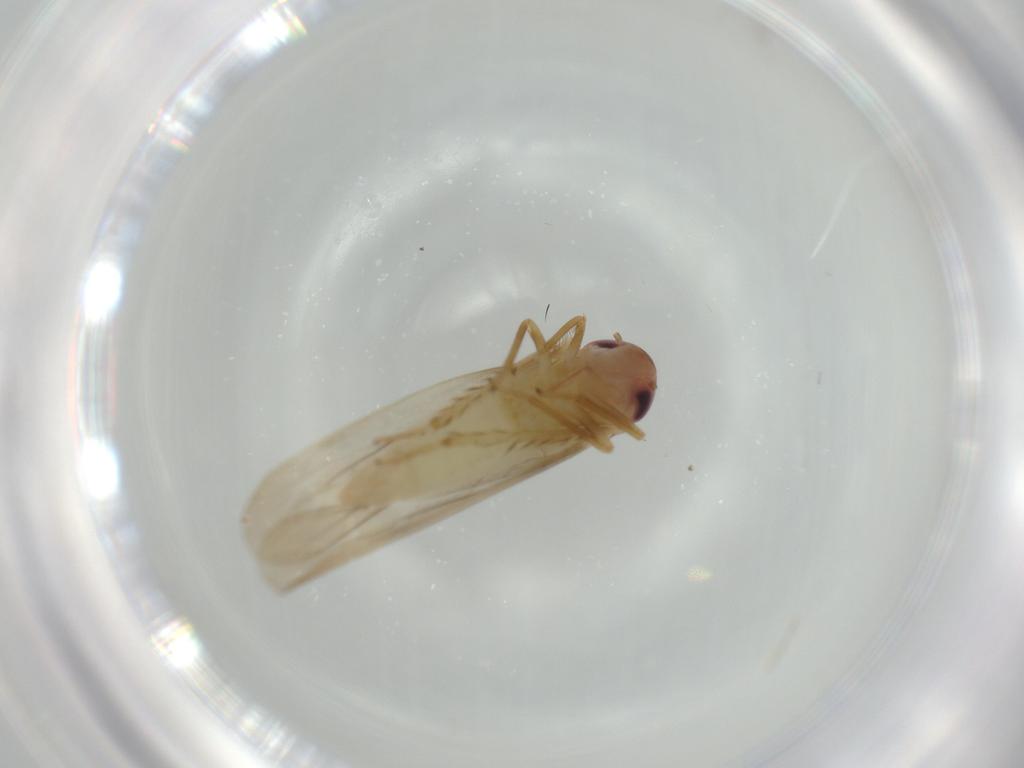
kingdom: Animalia
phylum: Arthropoda
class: Insecta
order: Hemiptera
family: Cicadellidae
